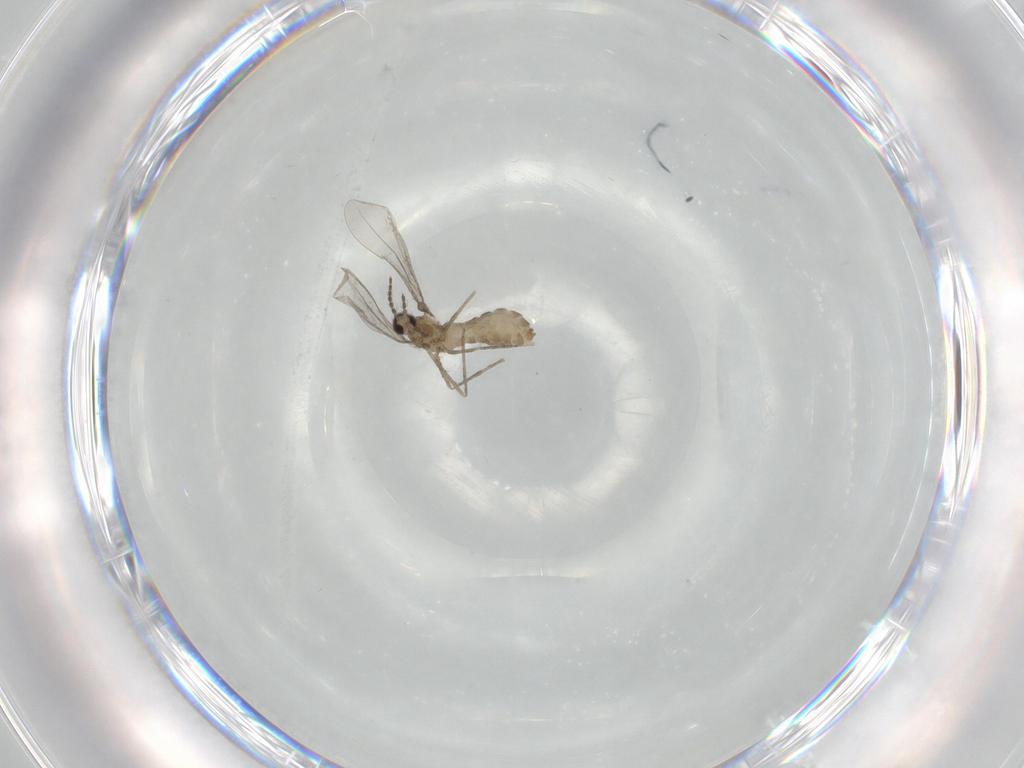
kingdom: Animalia
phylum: Arthropoda
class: Insecta
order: Diptera
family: Cecidomyiidae
